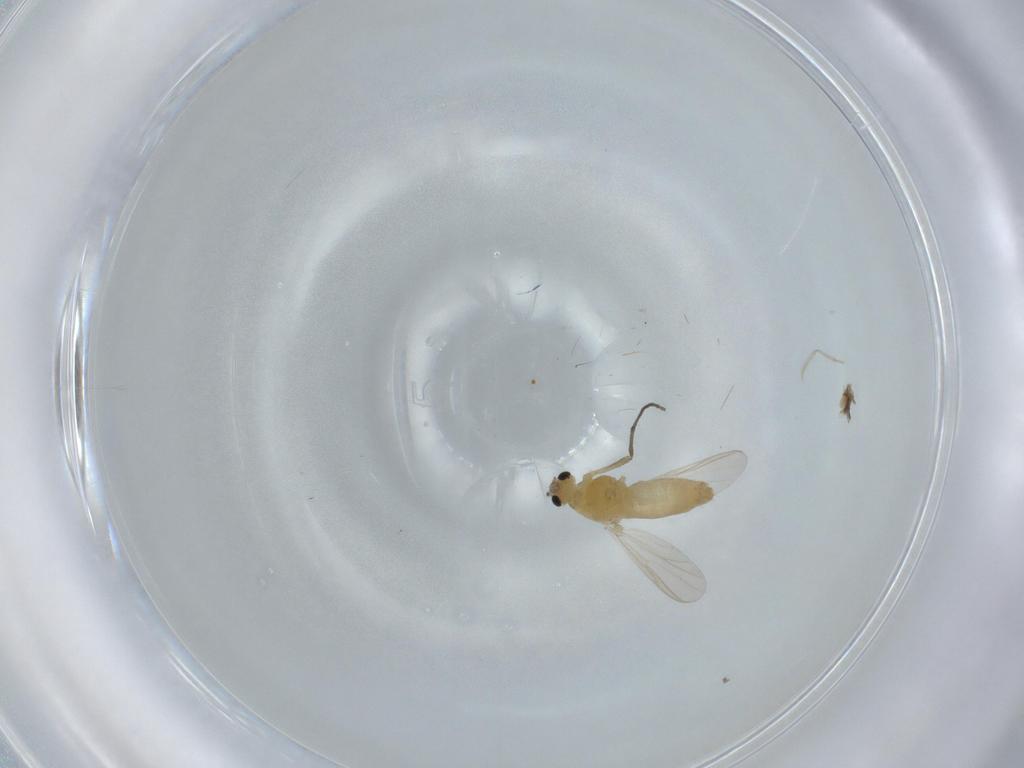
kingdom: Animalia
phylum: Arthropoda
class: Insecta
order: Diptera
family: Chironomidae
